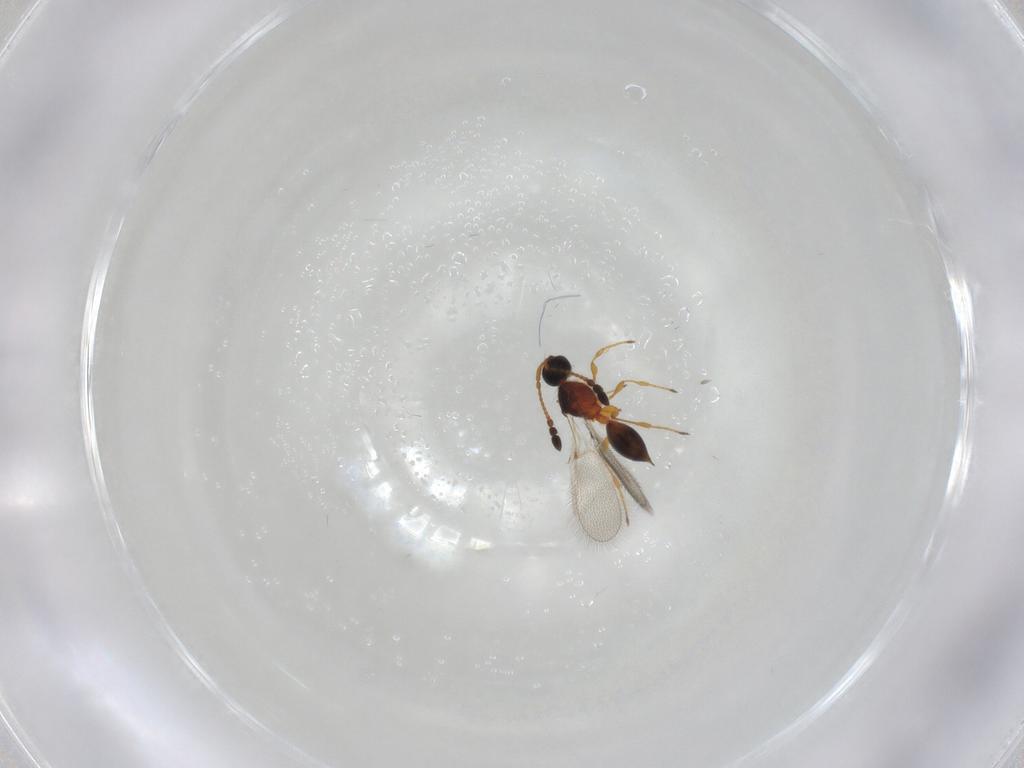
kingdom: Animalia
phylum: Arthropoda
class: Insecta
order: Hymenoptera
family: Diapriidae
